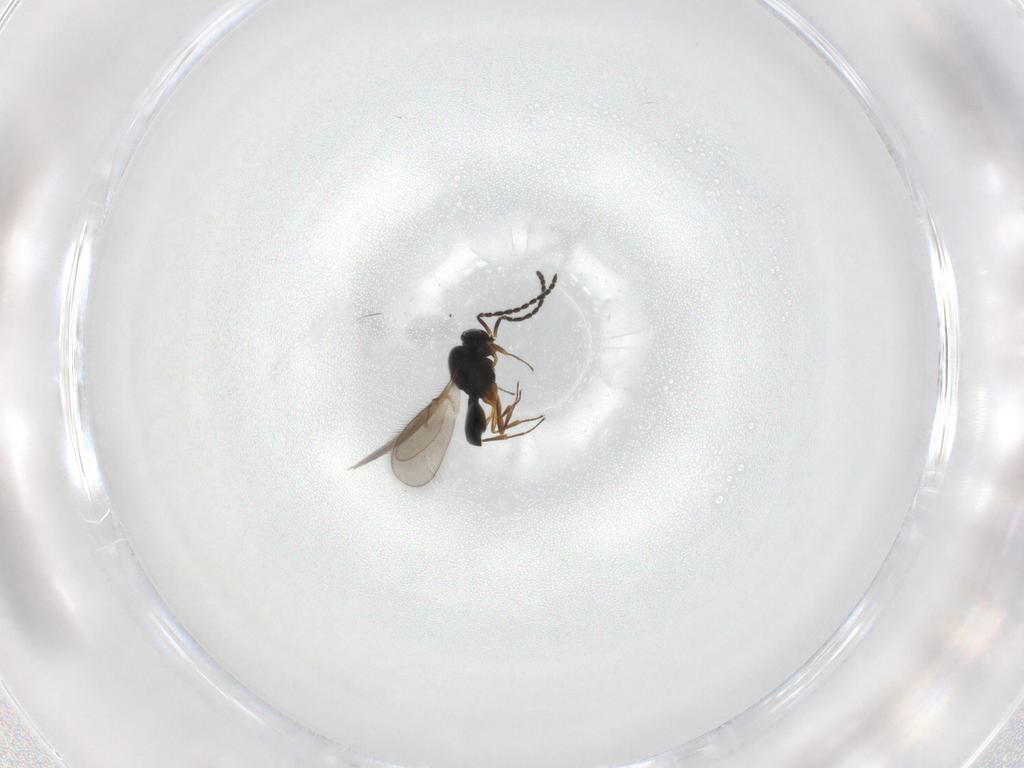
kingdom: Animalia
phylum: Arthropoda
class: Insecta
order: Hymenoptera
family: Scelionidae
